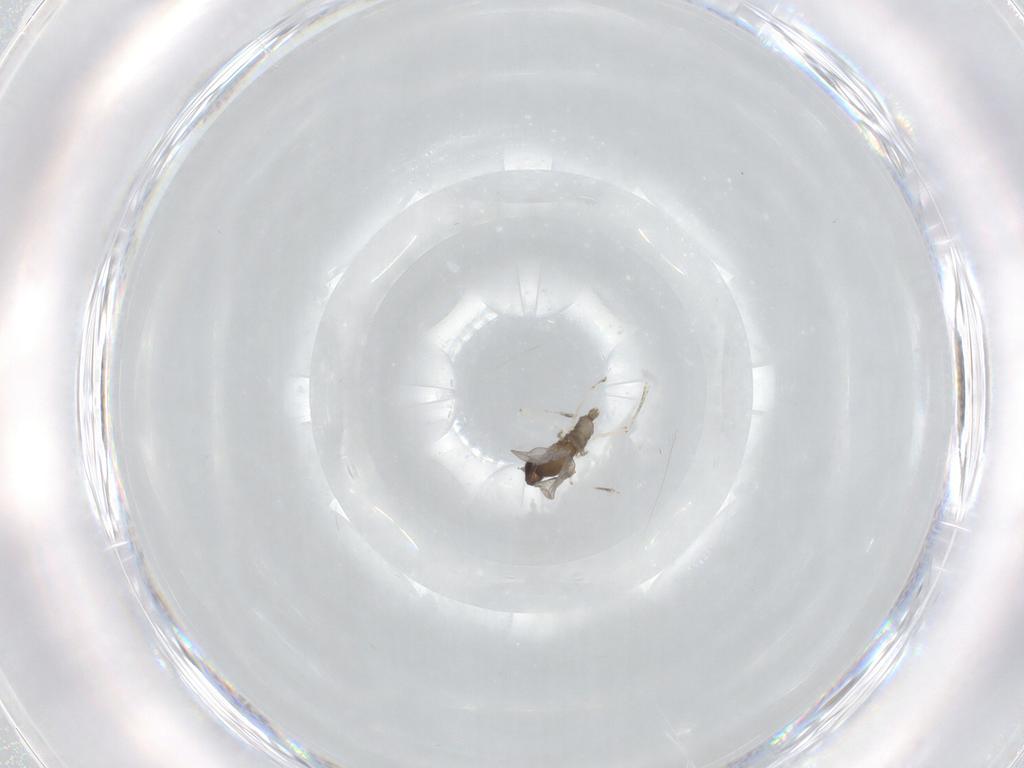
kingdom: Animalia
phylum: Arthropoda
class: Insecta
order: Diptera
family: Cecidomyiidae
